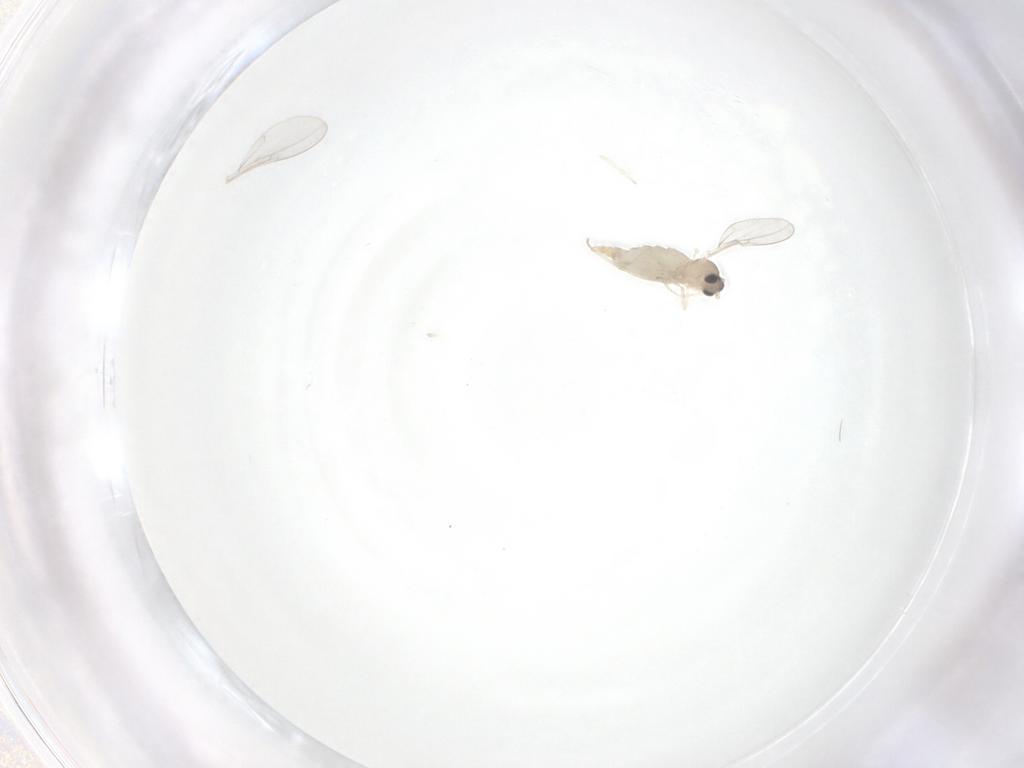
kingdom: Animalia
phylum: Arthropoda
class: Insecta
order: Diptera
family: Cecidomyiidae
